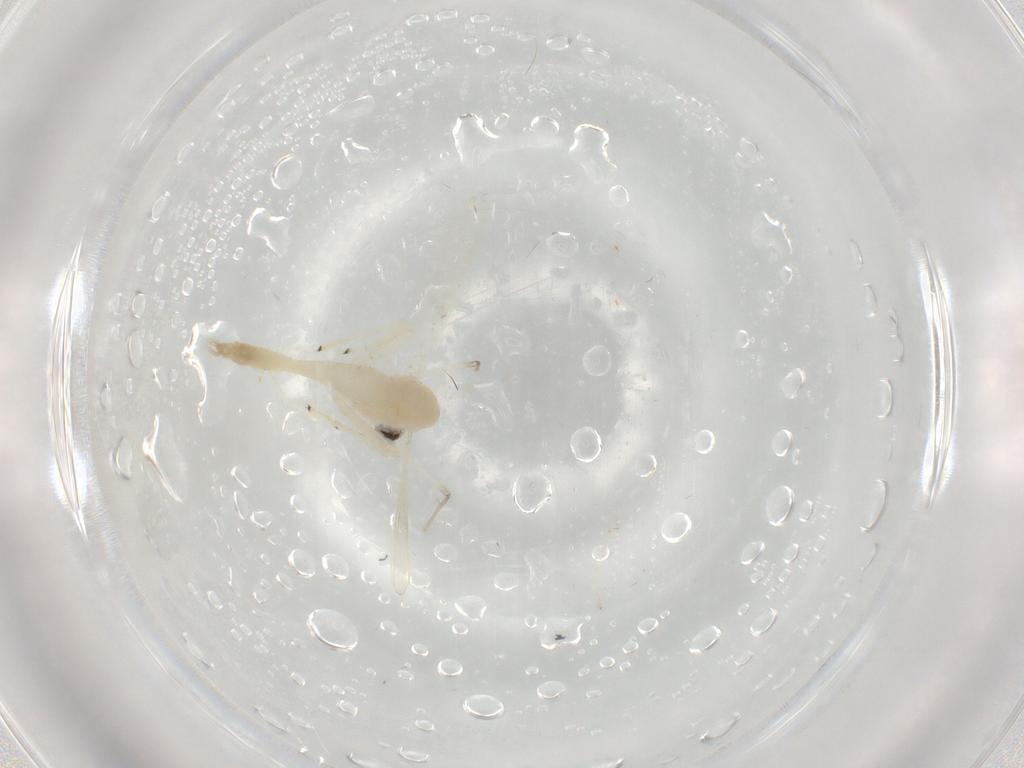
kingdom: Animalia
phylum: Arthropoda
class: Insecta
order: Diptera
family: Chironomidae
